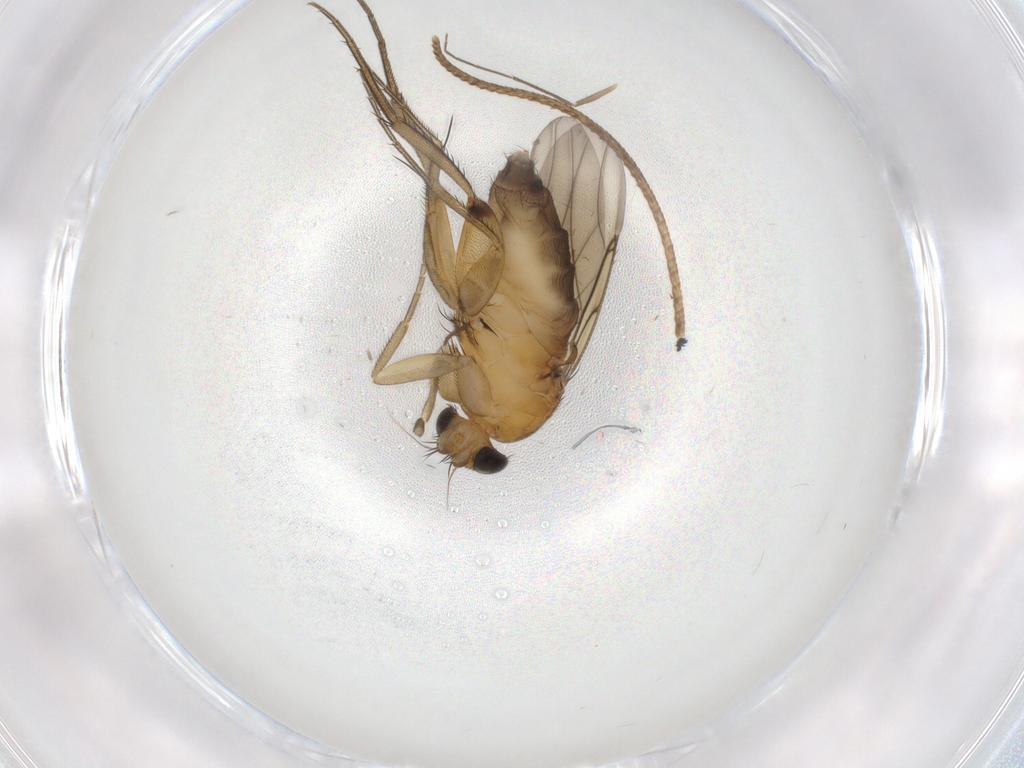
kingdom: Animalia
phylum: Arthropoda
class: Insecta
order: Diptera
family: Phoridae
